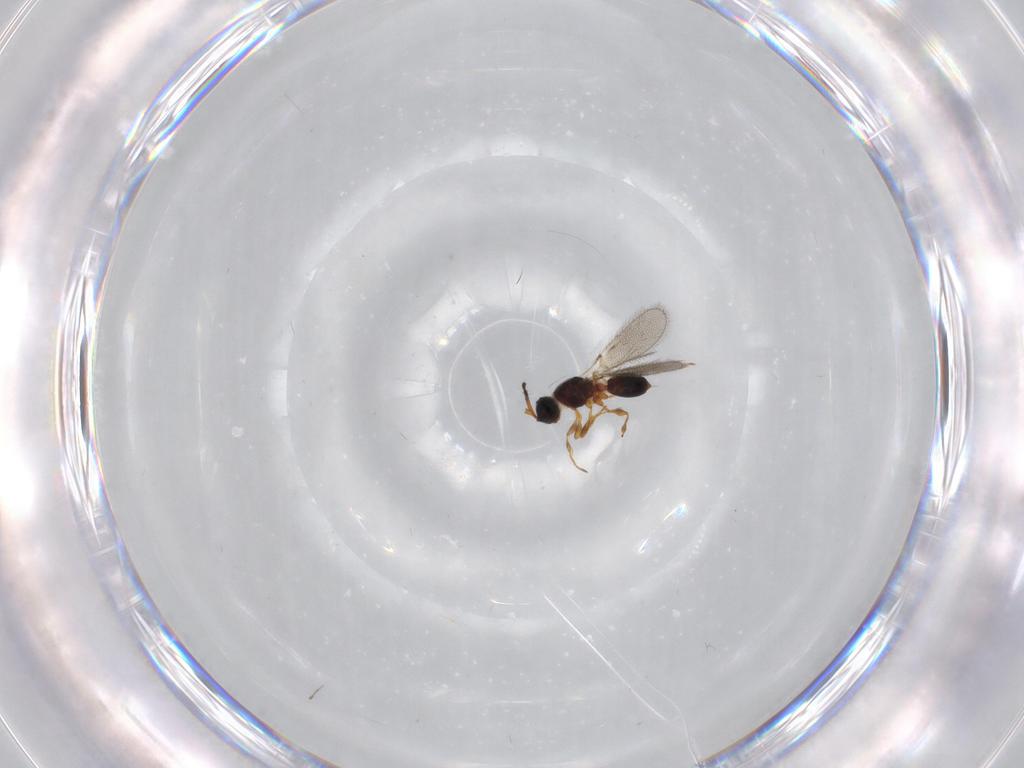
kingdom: Animalia
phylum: Arthropoda
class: Insecta
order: Hymenoptera
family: Diapriidae
